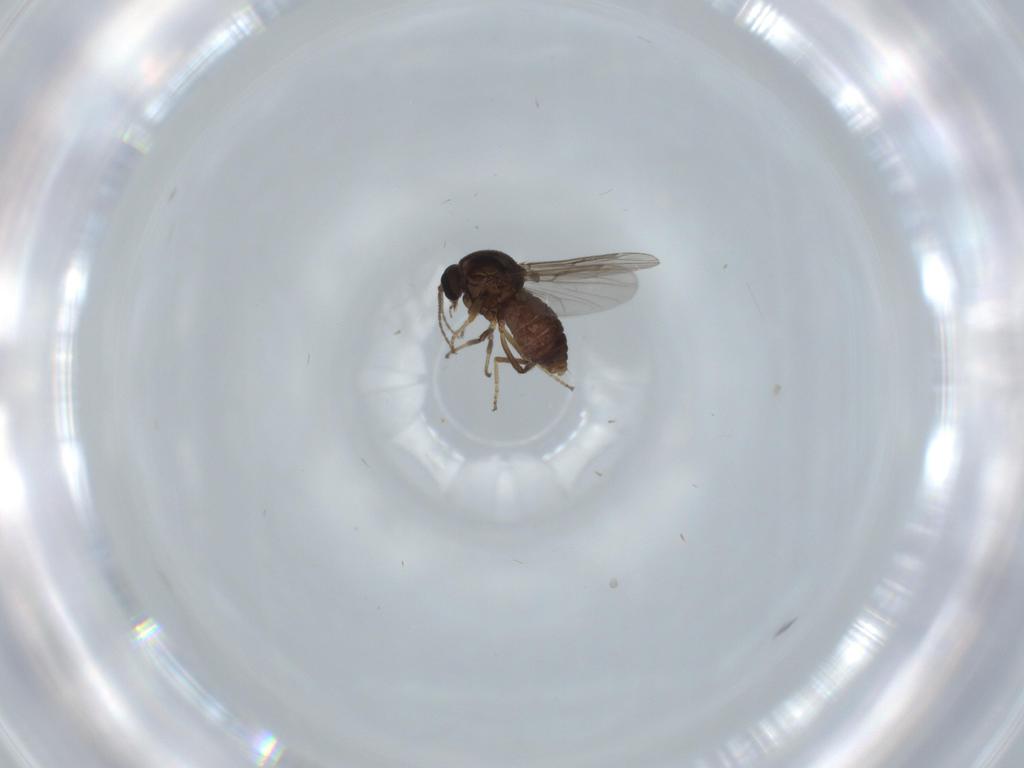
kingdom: Animalia
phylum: Arthropoda
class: Insecta
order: Diptera
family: Ceratopogonidae
